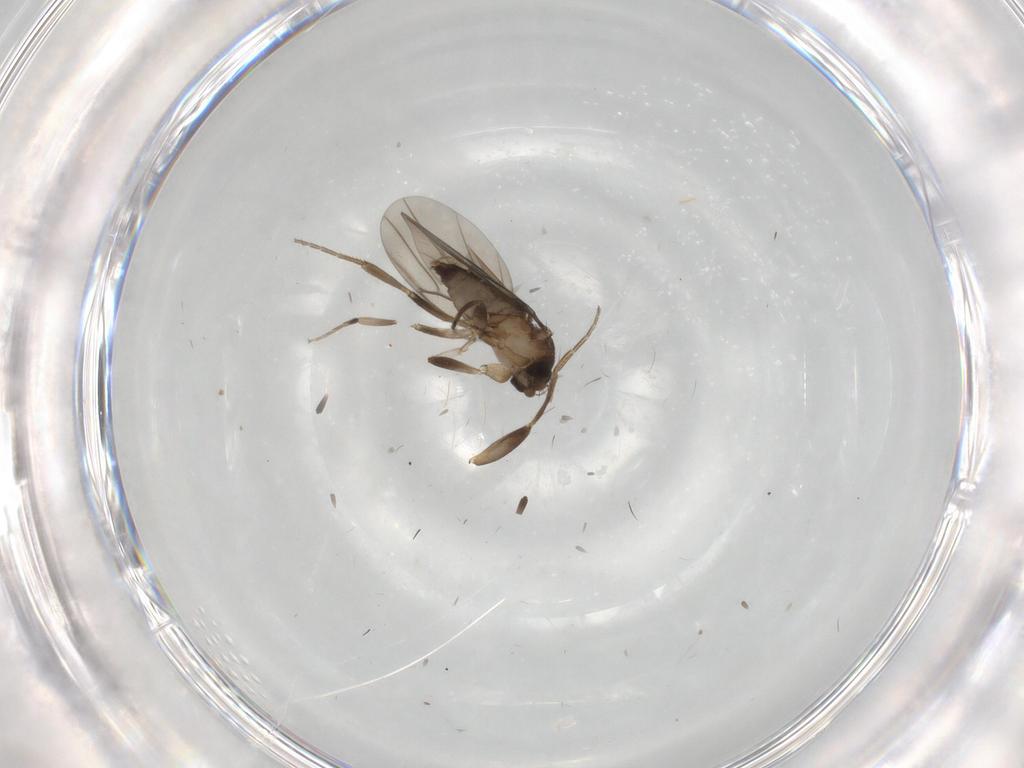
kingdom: Animalia
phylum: Arthropoda
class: Insecta
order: Diptera
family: Phoridae
